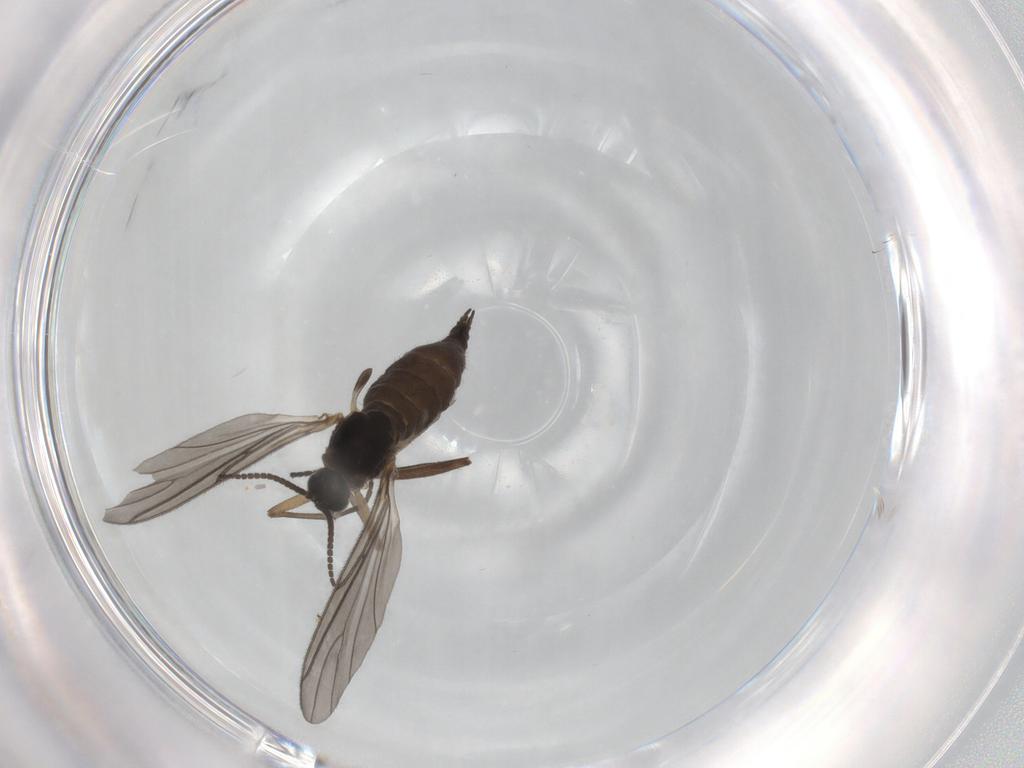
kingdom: Animalia
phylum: Arthropoda
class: Insecta
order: Diptera
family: Sciaridae
